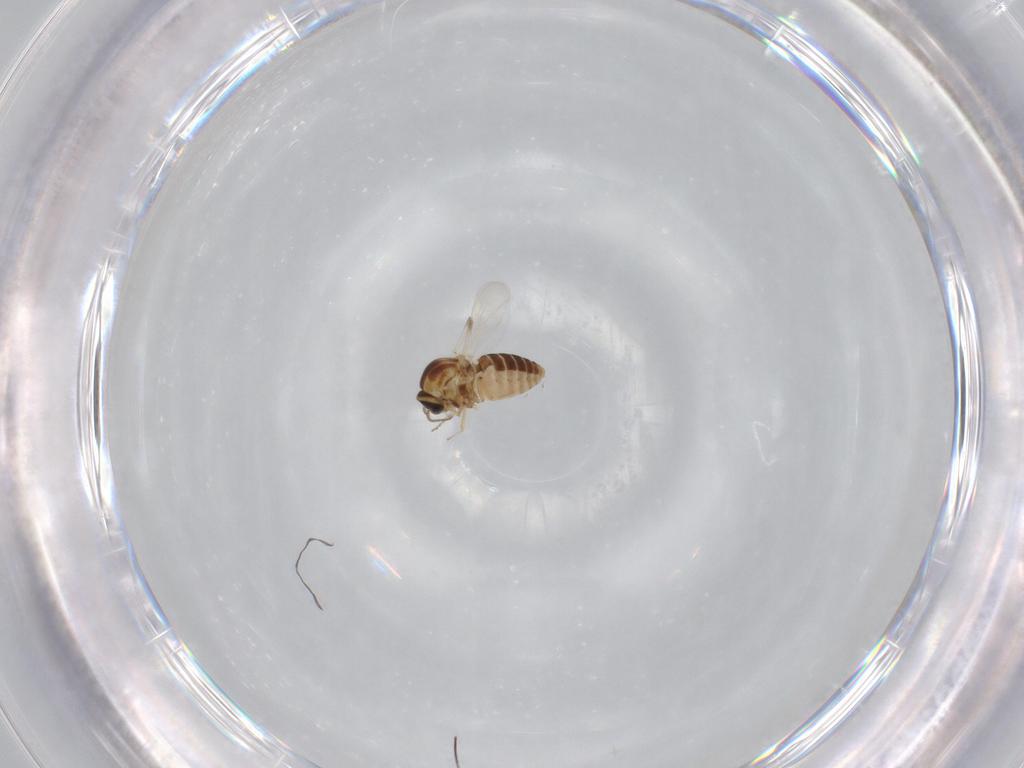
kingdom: Animalia
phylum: Arthropoda
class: Insecta
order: Diptera
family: Ceratopogonidae
